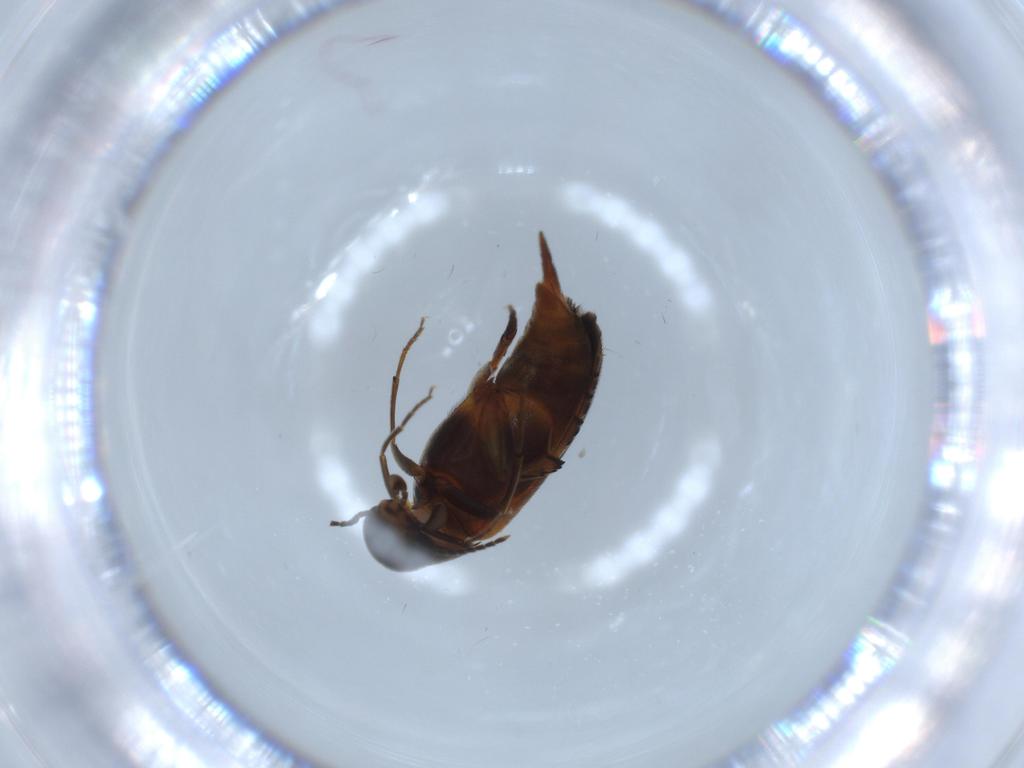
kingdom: Animalia
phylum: Arthropoda
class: Insecta
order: Coleoptera
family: Mordellidae
